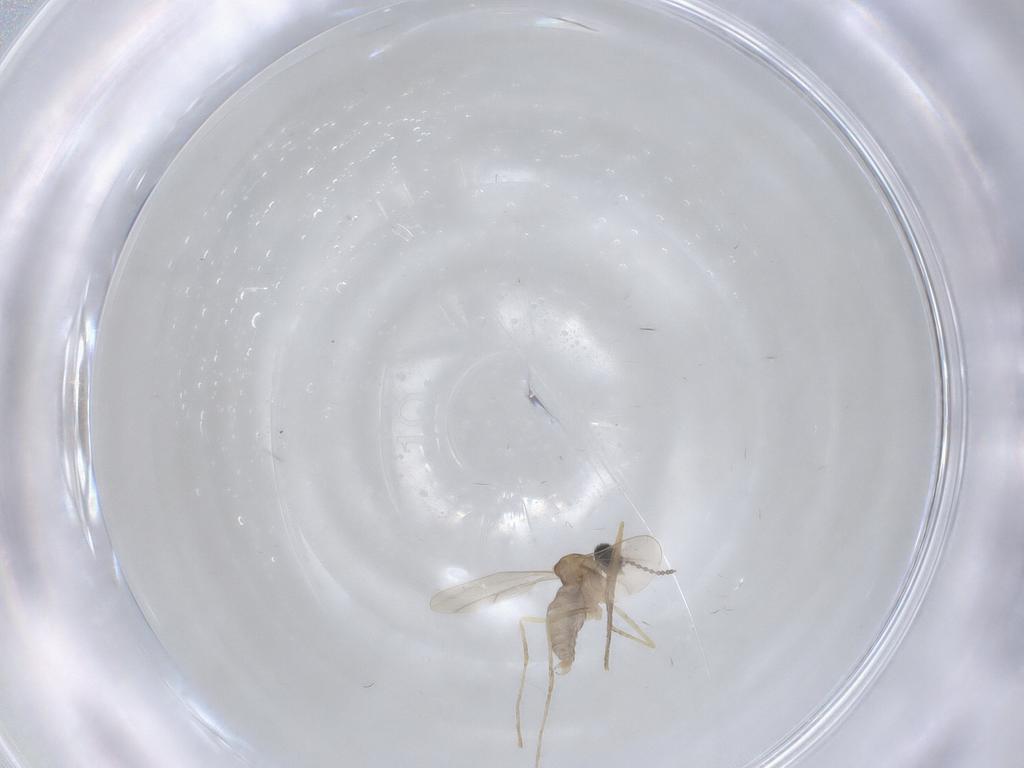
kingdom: Animalia
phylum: Arthropoda
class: Insecta
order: Diptera
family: Cecidomyiidae
